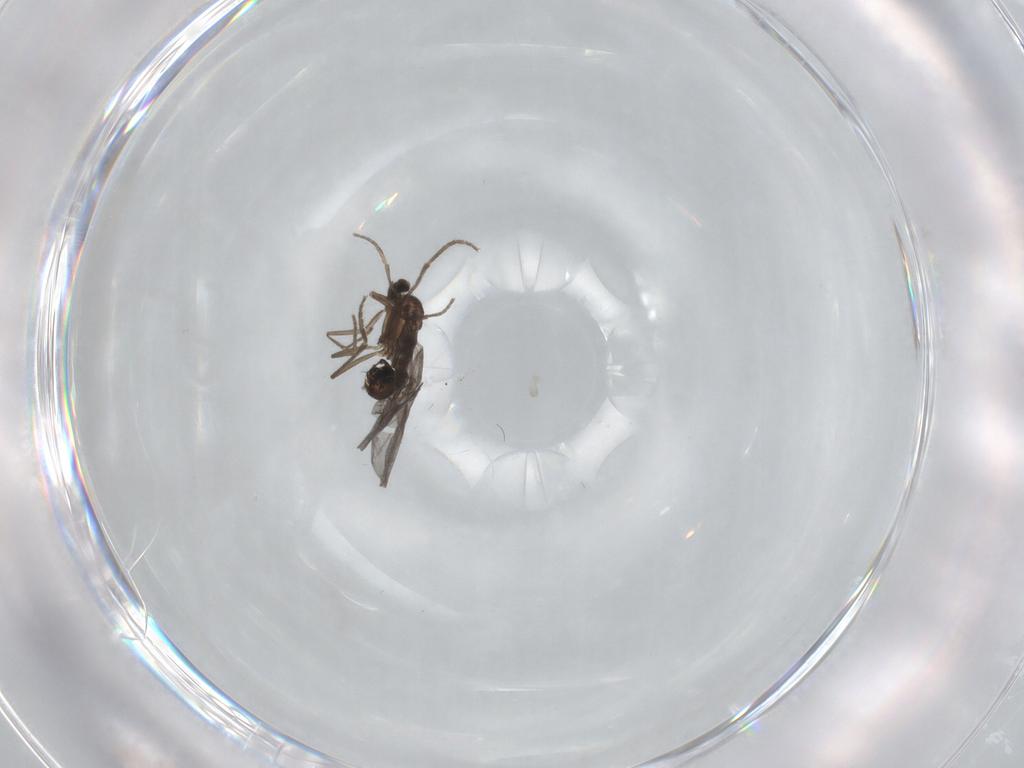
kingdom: Animalia
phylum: Arthropoda
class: Insecta
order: Diptera
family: Phoridae
